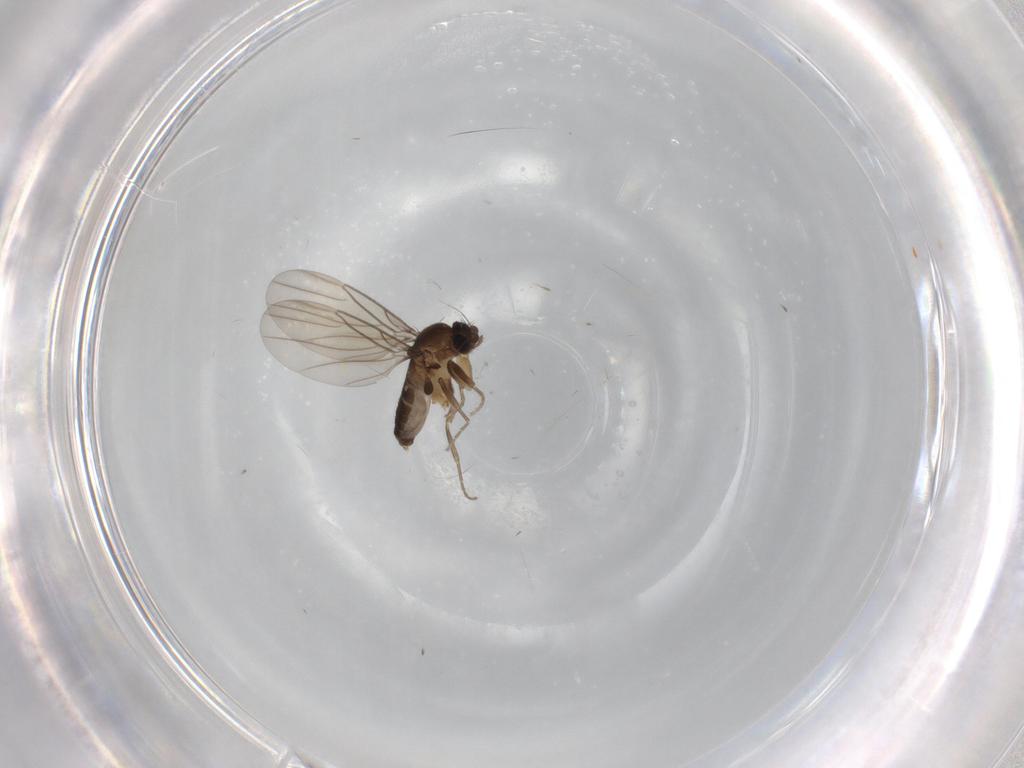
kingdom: Animalia
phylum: Arthropoda
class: Insecta
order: Diptera
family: Phoridae
